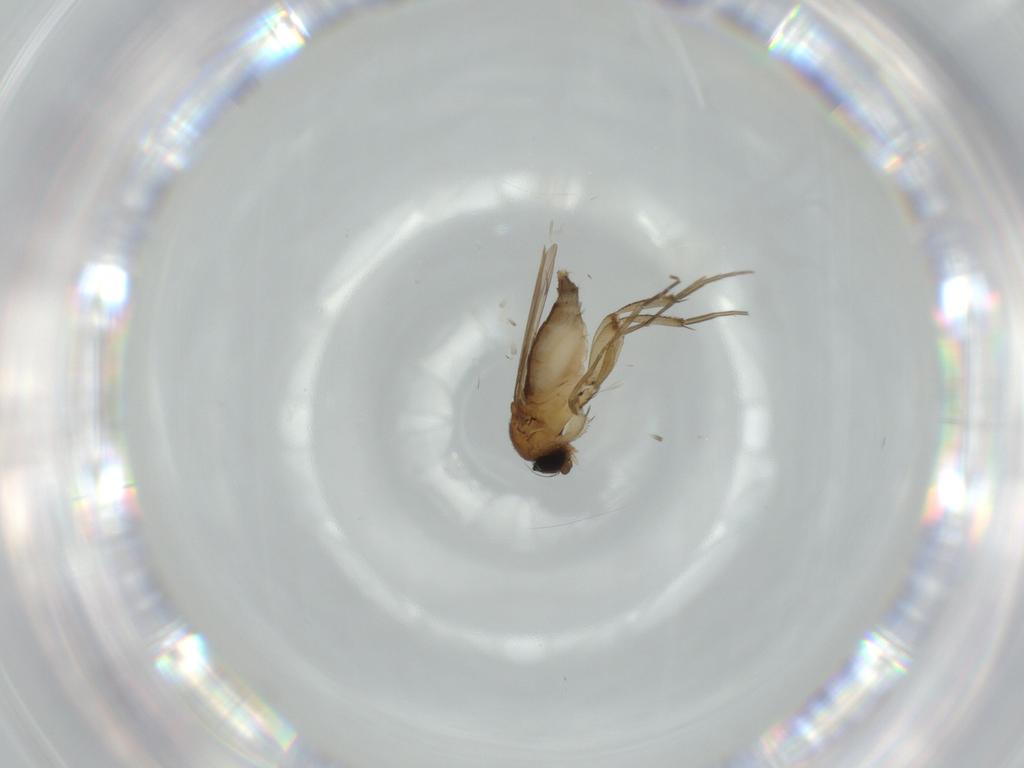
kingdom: Animalia
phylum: Arthropoda
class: Insecta
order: Diptera
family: Phoridae
